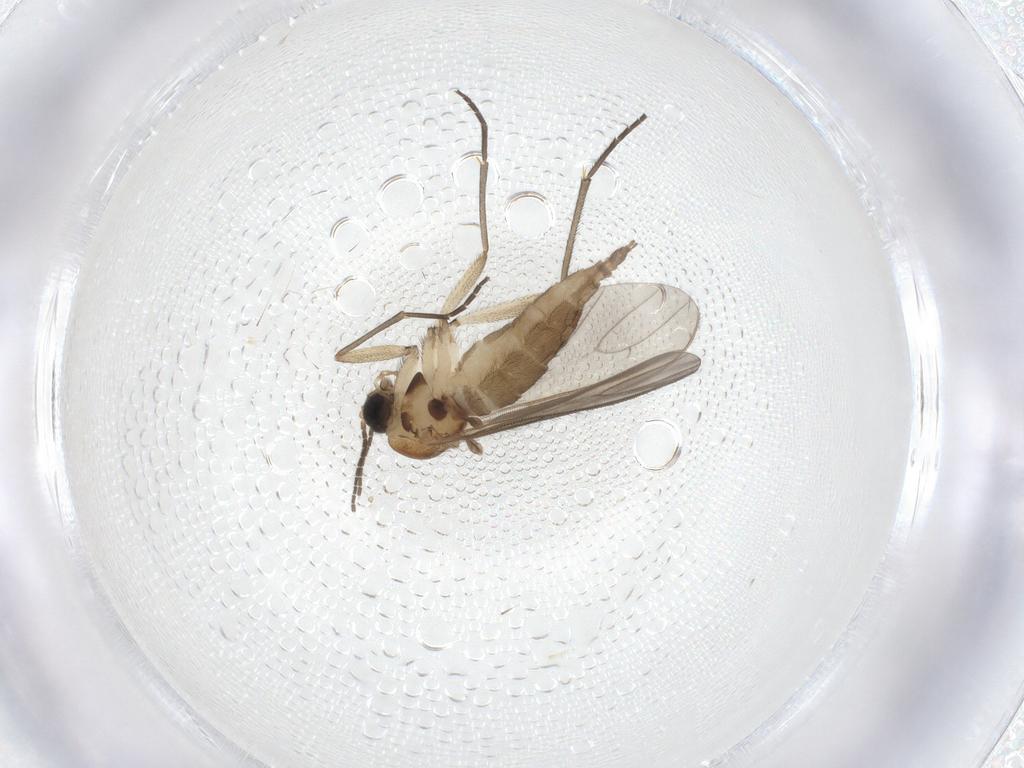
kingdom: Animalia
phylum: Arthropoda
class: Insecta
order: Diptera
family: Sciaridae
